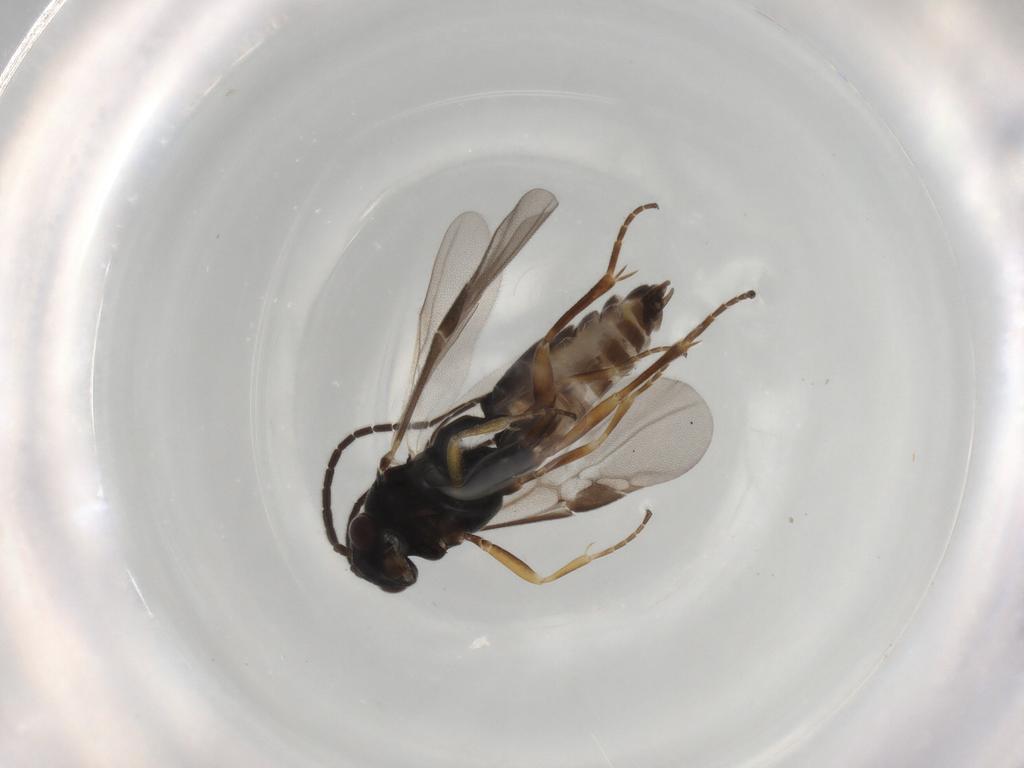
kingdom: Animalia
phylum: Arthropoda
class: Insecta
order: Hymenoptera
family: Braconidae
